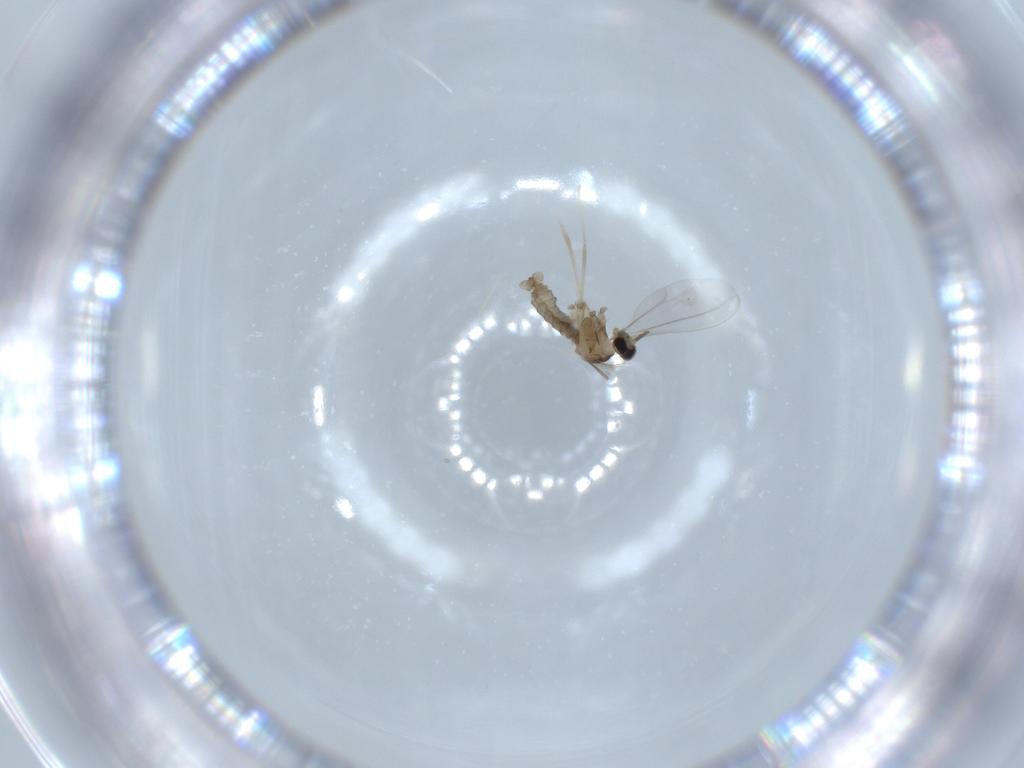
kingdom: Animalia
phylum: Arthropoda
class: Insecta
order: Diptera
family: Cecidomyiidae
